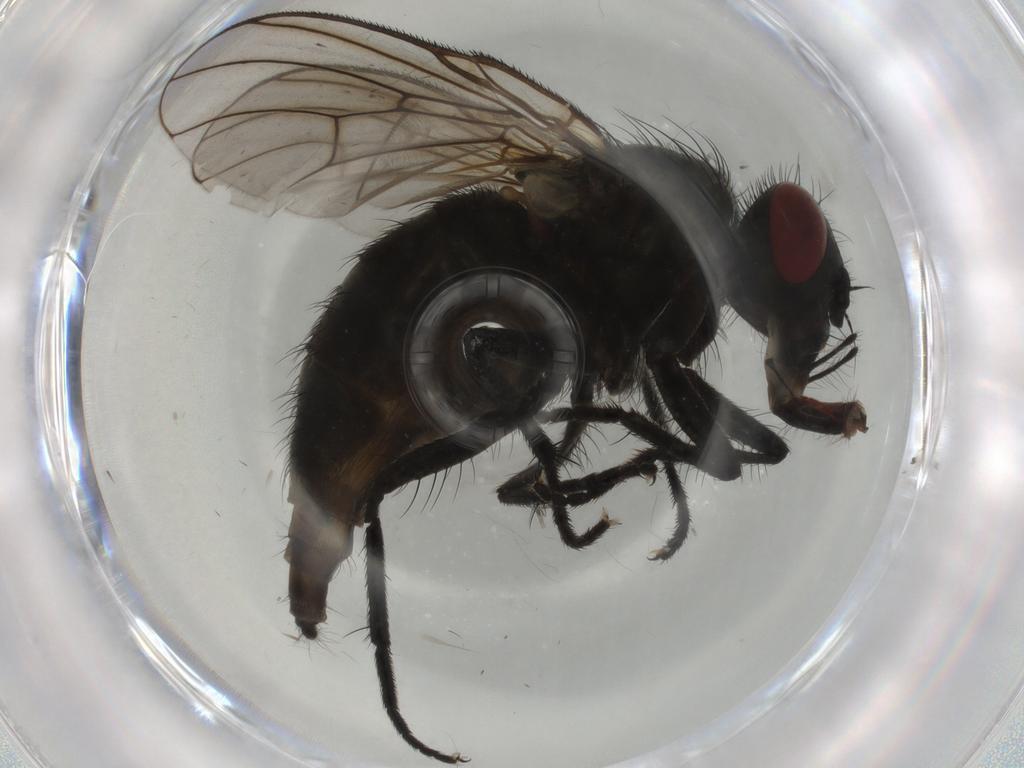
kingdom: Animalia
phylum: Arthropoda
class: Insecta
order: Diptera
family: Muscidae
